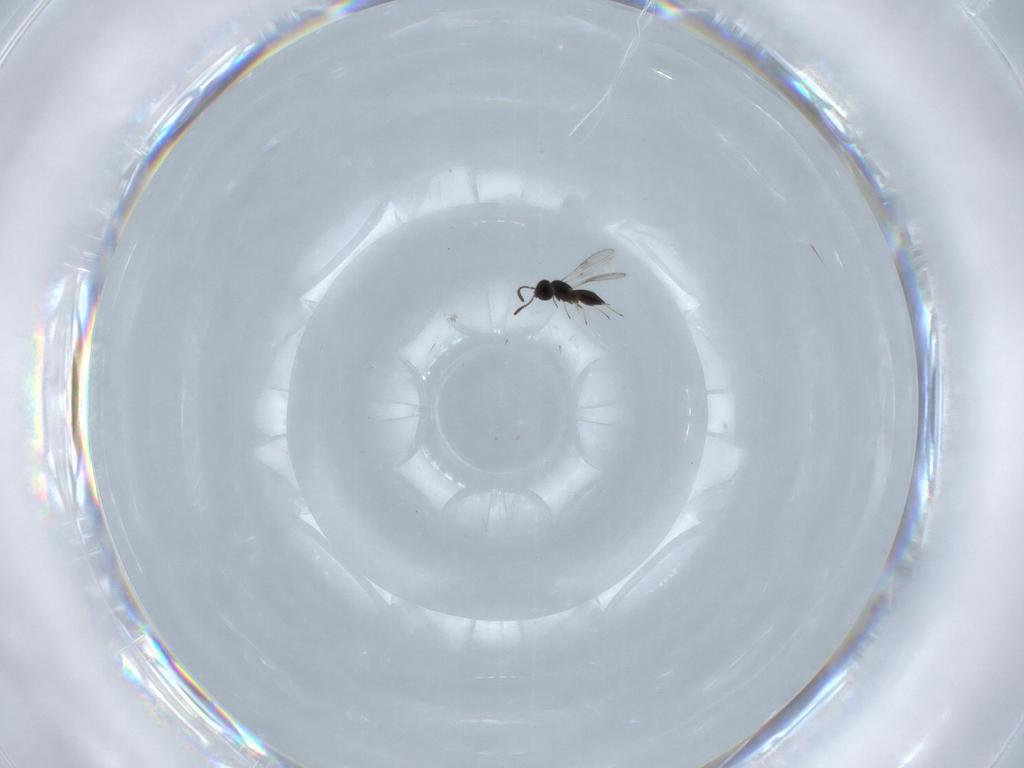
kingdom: Animalia
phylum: Arthropoda
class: Insecta
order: Hymenoptera
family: Scelionidae
